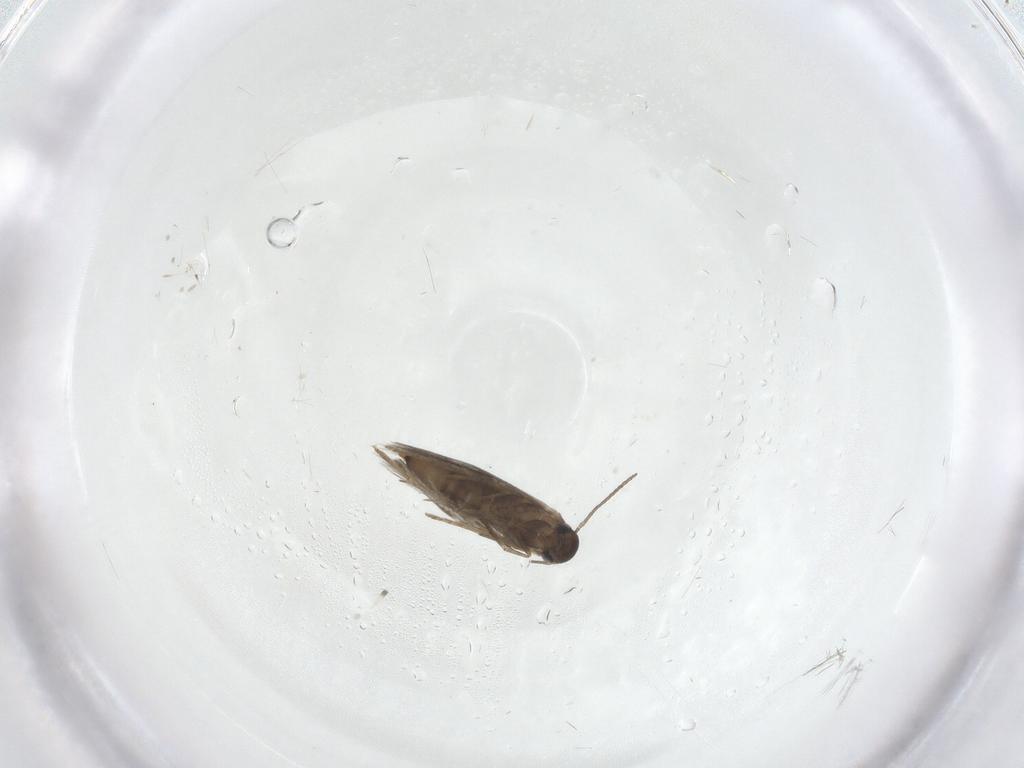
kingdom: Animalia
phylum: Arthropoda
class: Insecta
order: Lepidoptera
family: Heliozelidae
